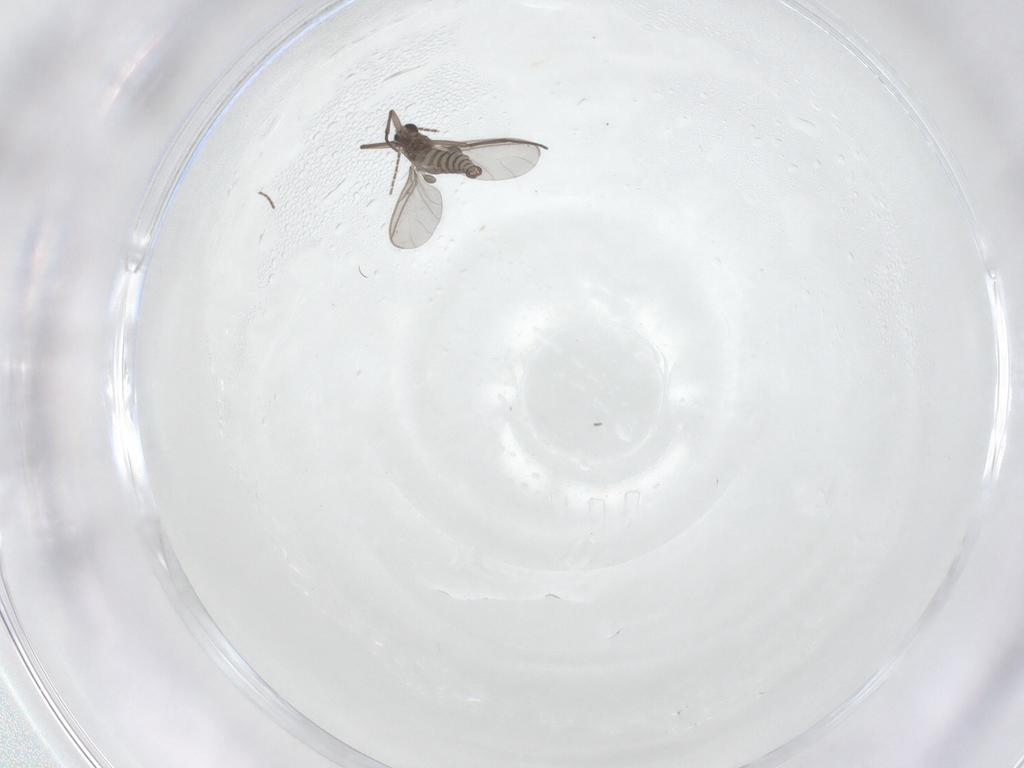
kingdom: Animalia
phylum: Arthropoda
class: Insecta
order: Diptera
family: Sciaridae
